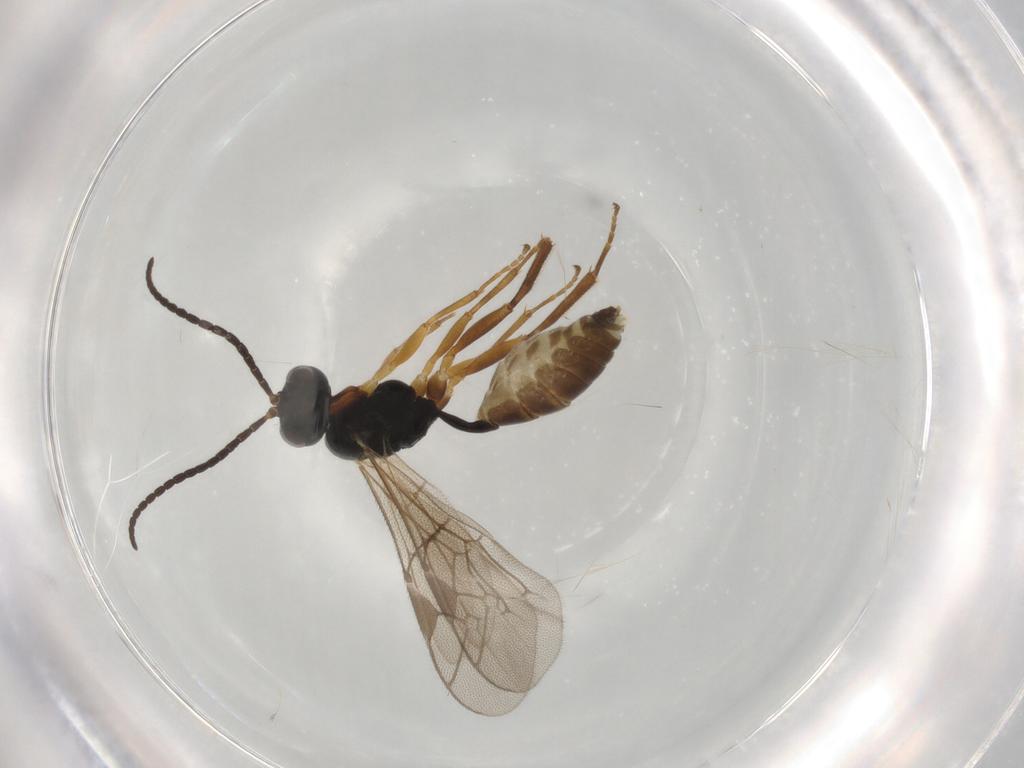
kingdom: Animalia
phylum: Arthropoda
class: Insecta
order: Hymenoptera
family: Ichneumonidae
